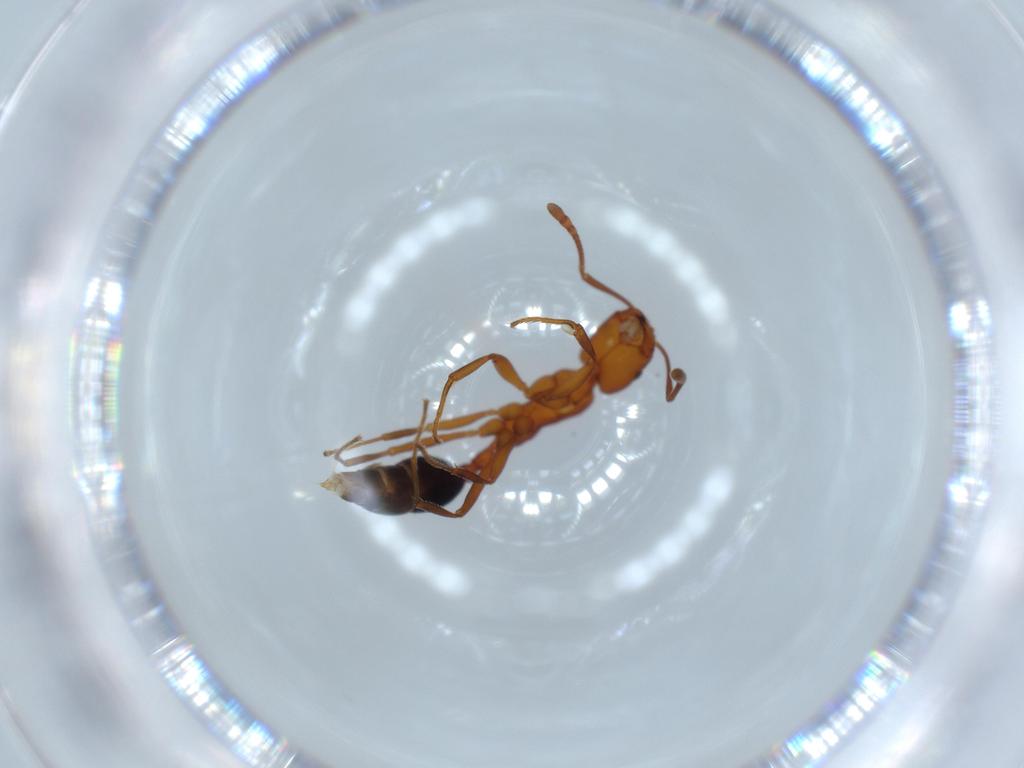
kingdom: Animalia
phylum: Arthropoda
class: Insecta
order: Hymenoptera
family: Formicidae
